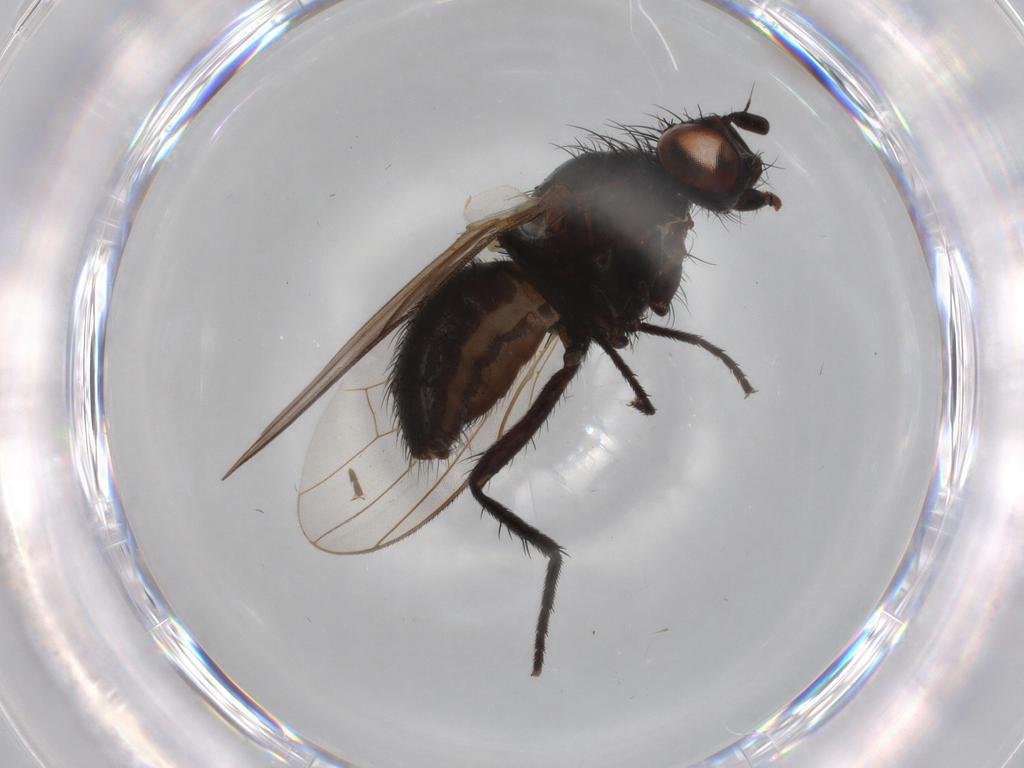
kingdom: Animalia
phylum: Arthropoda
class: Insecta
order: Diptera
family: Anthomyiidae
